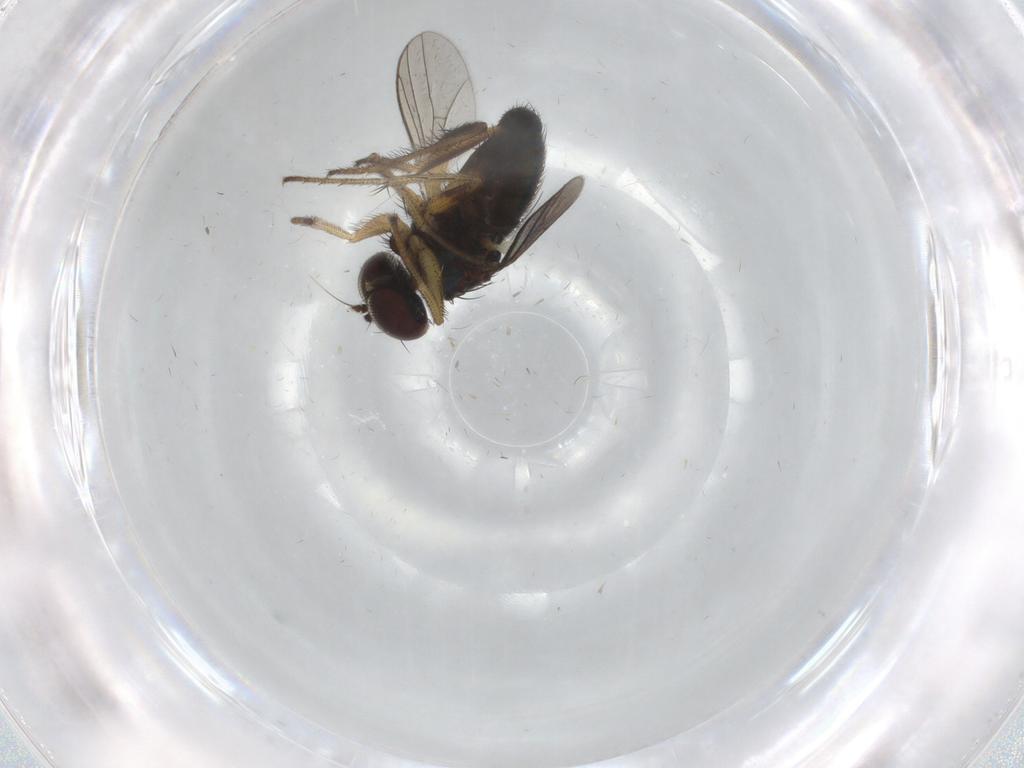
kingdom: Animalia
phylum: Arthropoda
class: Insecta
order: Diptera
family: Dolichopodidae
